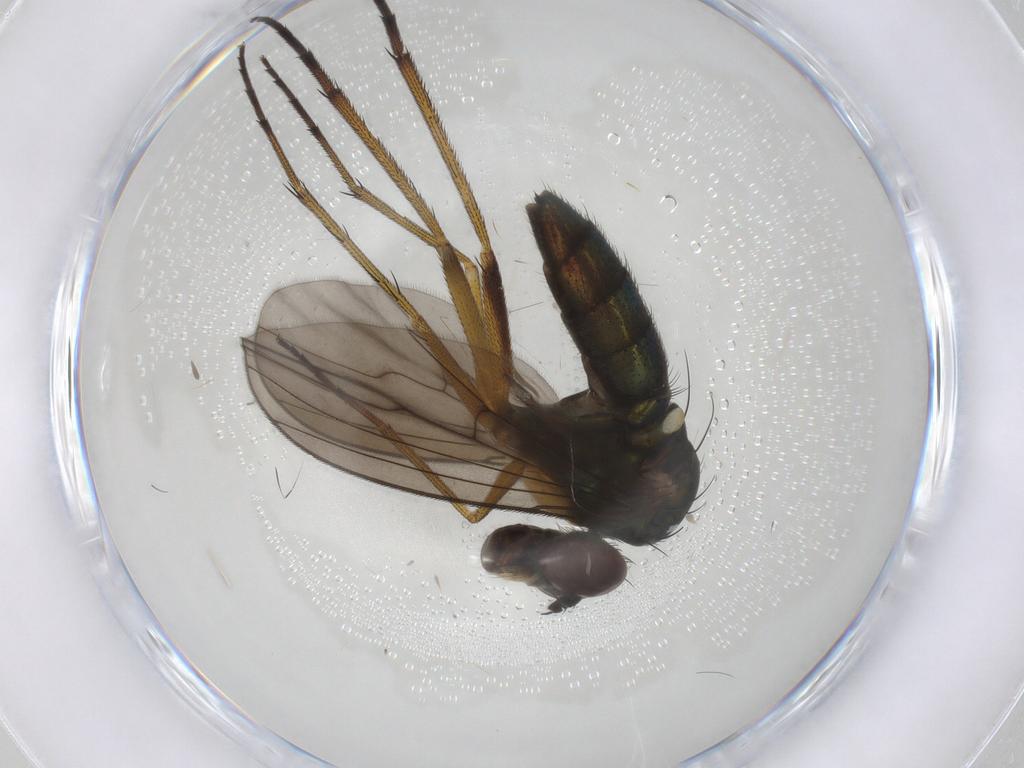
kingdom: Animalia
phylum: Arthropoda
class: Insecta
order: Diptera
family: Dolichopodidae
